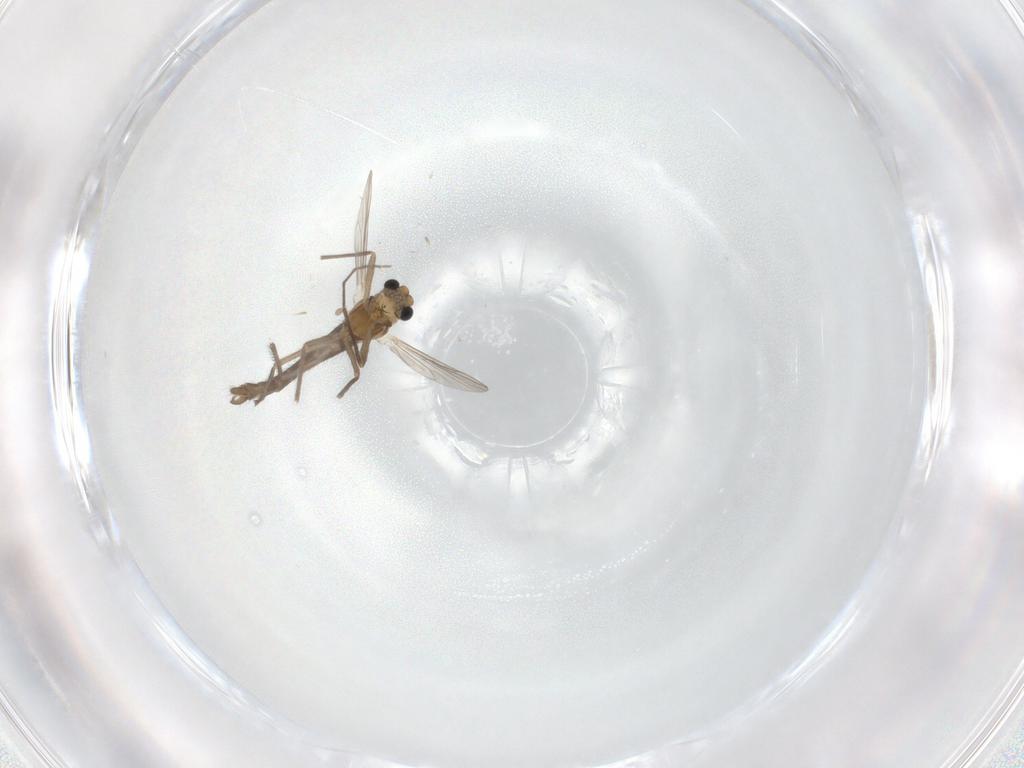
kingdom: Animalia
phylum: Arthropoda
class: Insecta
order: Diptera
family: Chironomidae
